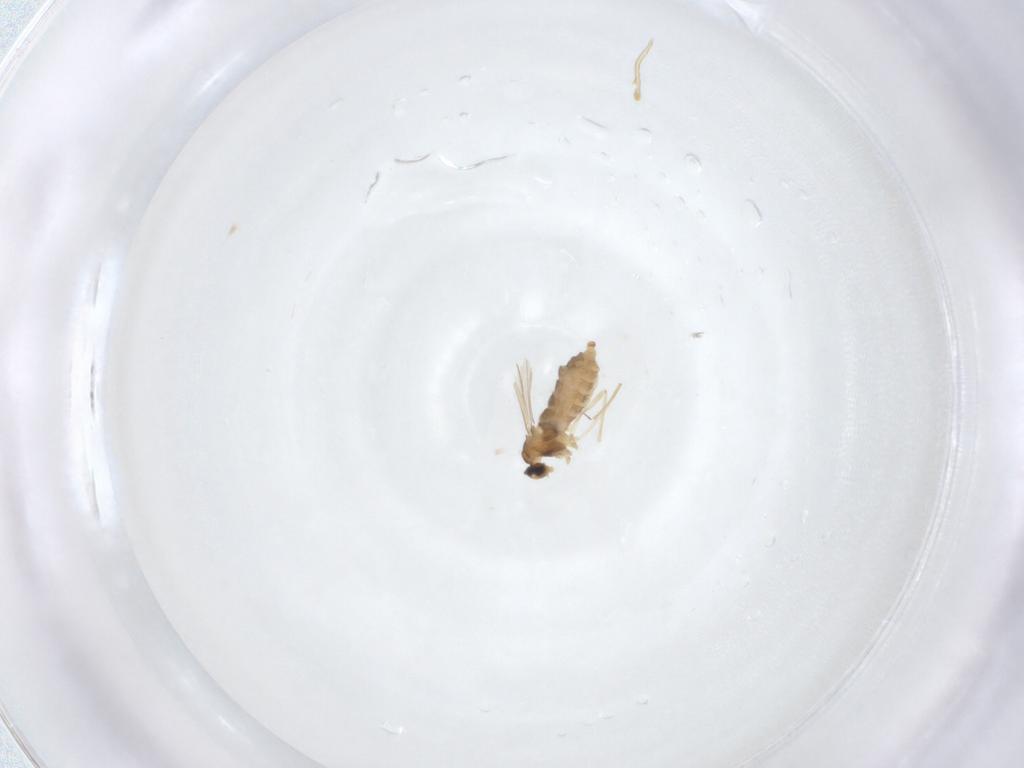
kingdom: Animalia
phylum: Arthropoda
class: Insecta
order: Diptera
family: Cecidomyiidae
